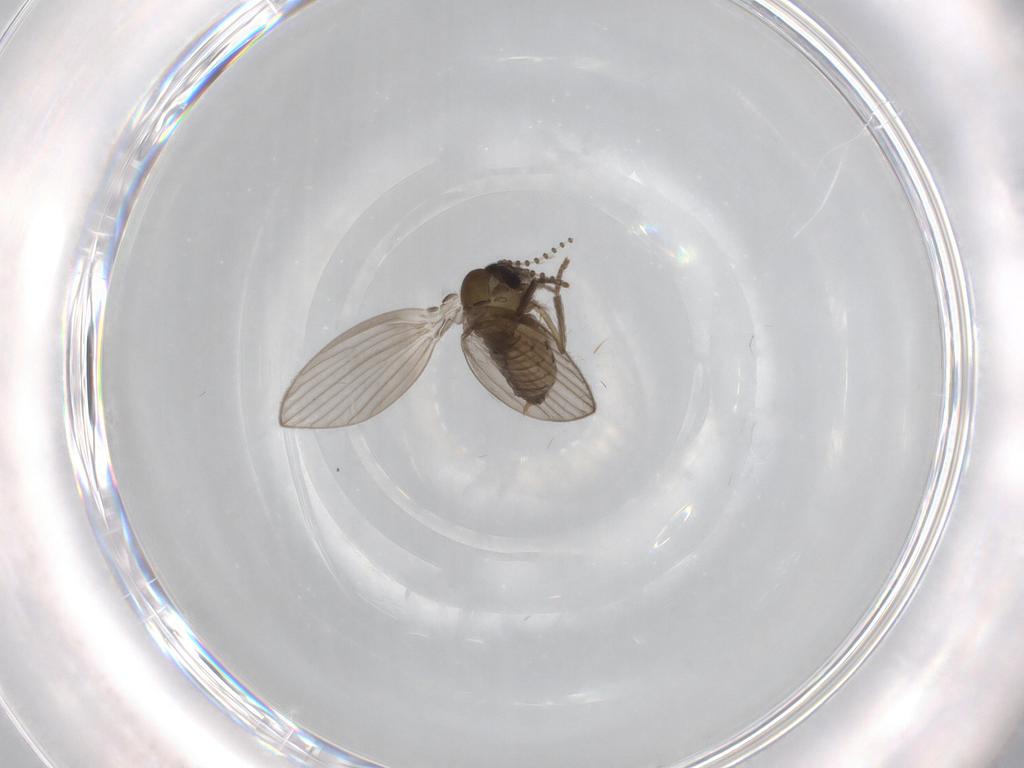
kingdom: Animalia
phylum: Arthropoda
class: Insecta
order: Diptera
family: Psychodidae
